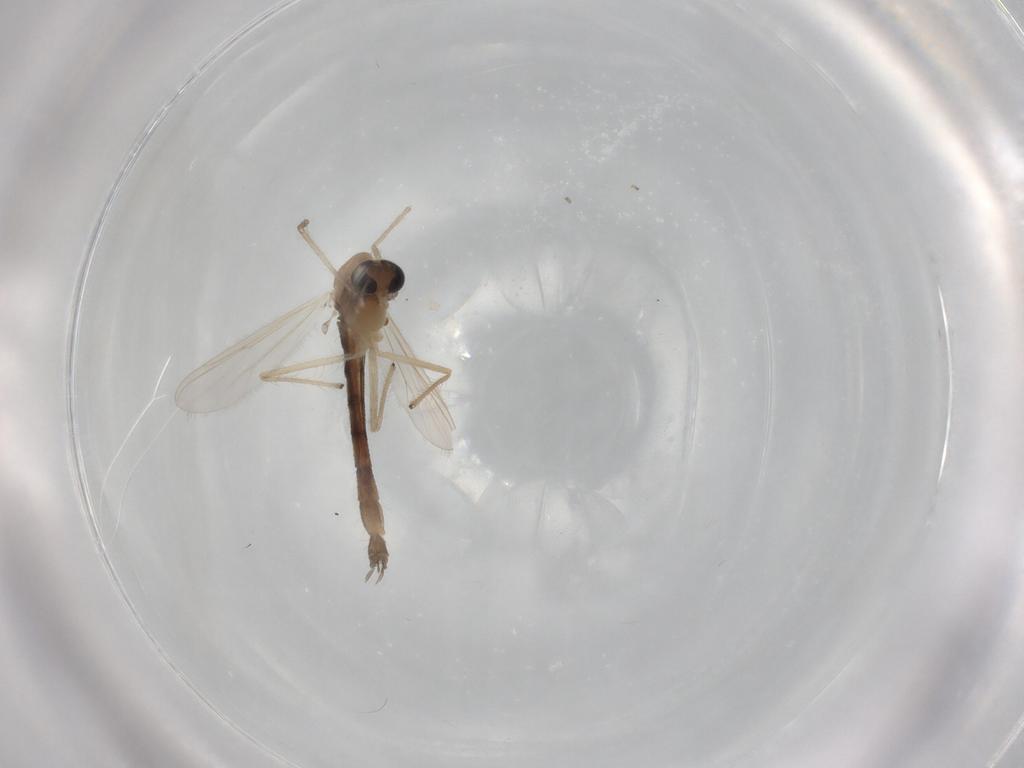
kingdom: Animalia
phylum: Arthropoda
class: Insecta
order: Diptera
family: Chironomidae
